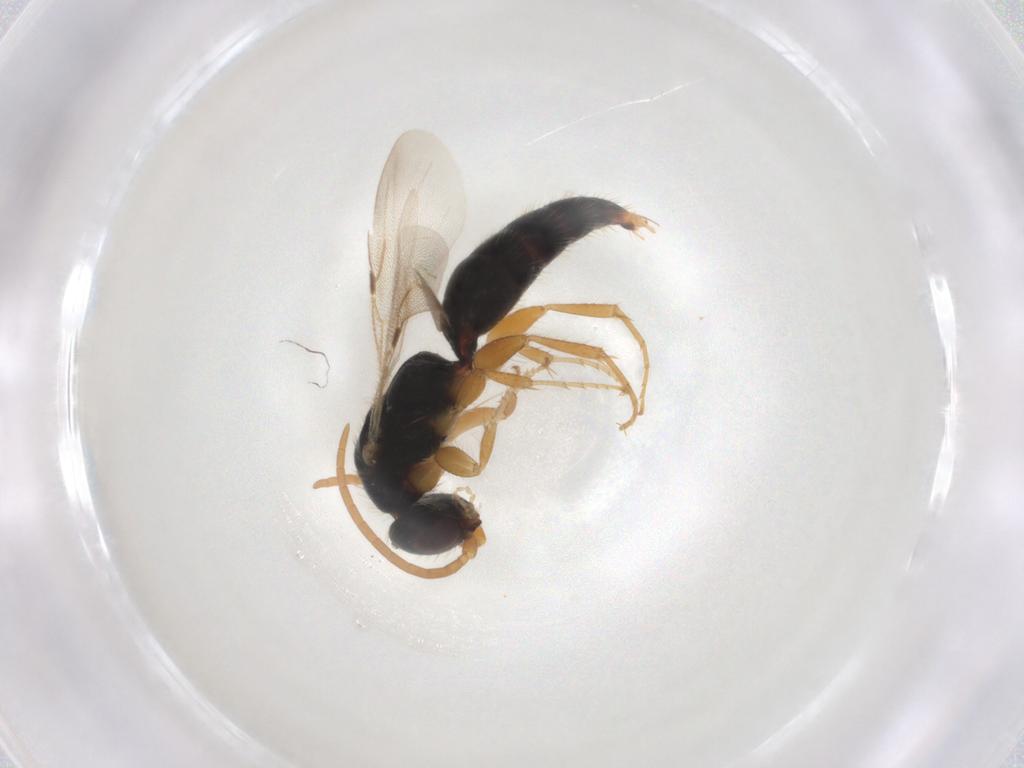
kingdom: Animalia
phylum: Arthropoda
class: Insecta
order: Hymenoptera
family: Bethylidae
